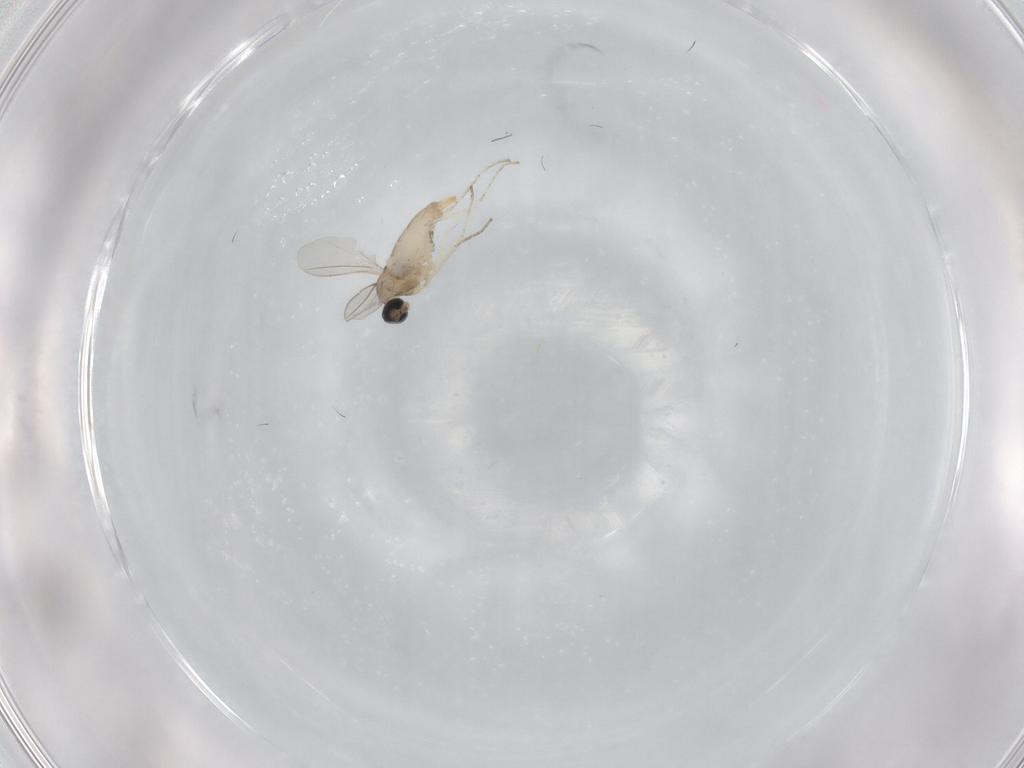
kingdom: Animalia
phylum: Arthropoda
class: Insecta
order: Diptera
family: Cecidomyiidae
